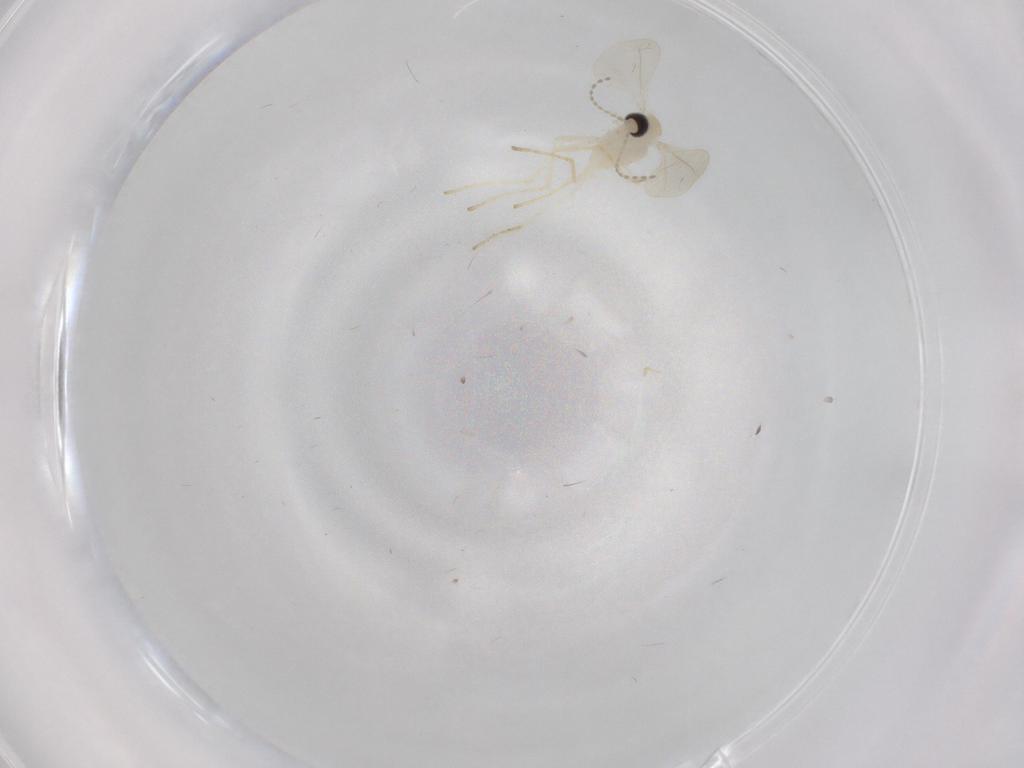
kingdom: Animalia
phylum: Arthropoda
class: Insecta
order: Diptera
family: Cecidomyiidae
